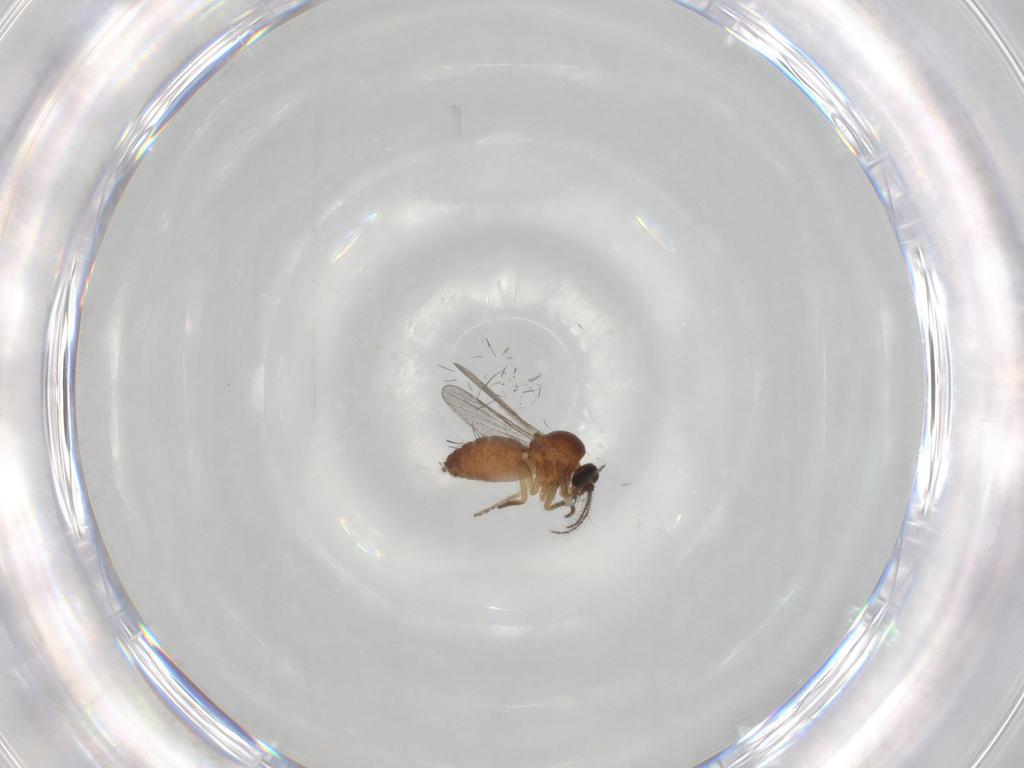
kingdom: Animalia
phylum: Arthropoda
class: Insecta
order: Diptera
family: Ceratopogonidae
